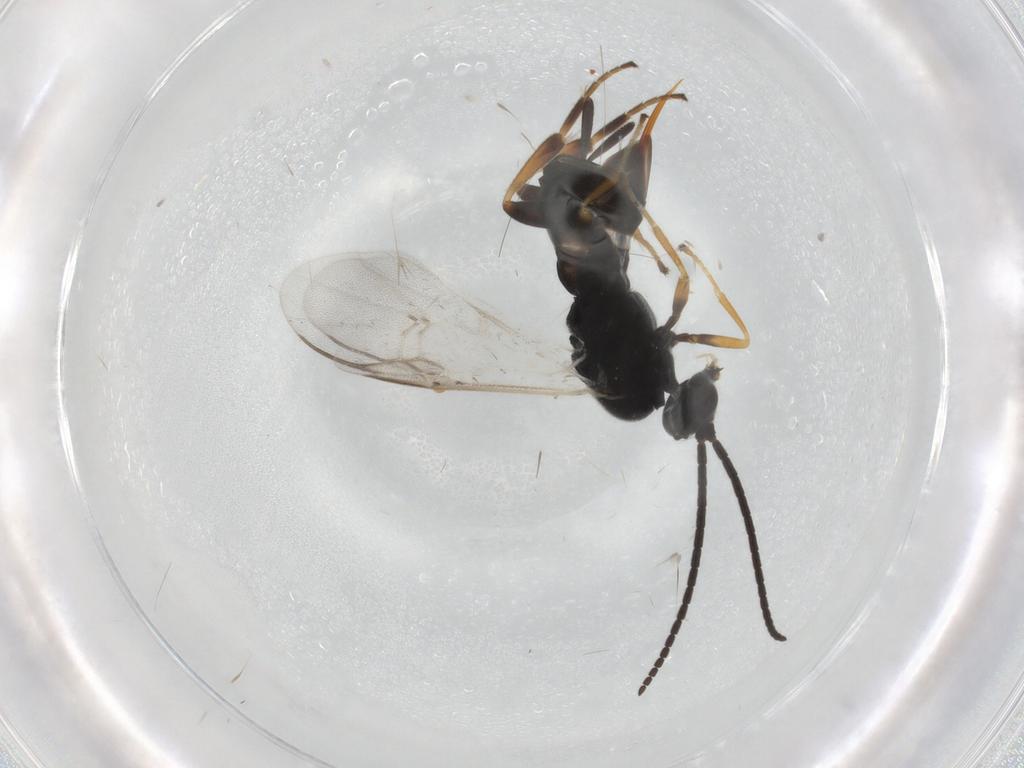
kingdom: Animalia
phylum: Arthropoda
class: Insecta
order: Hymenoptera
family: Braconidae
